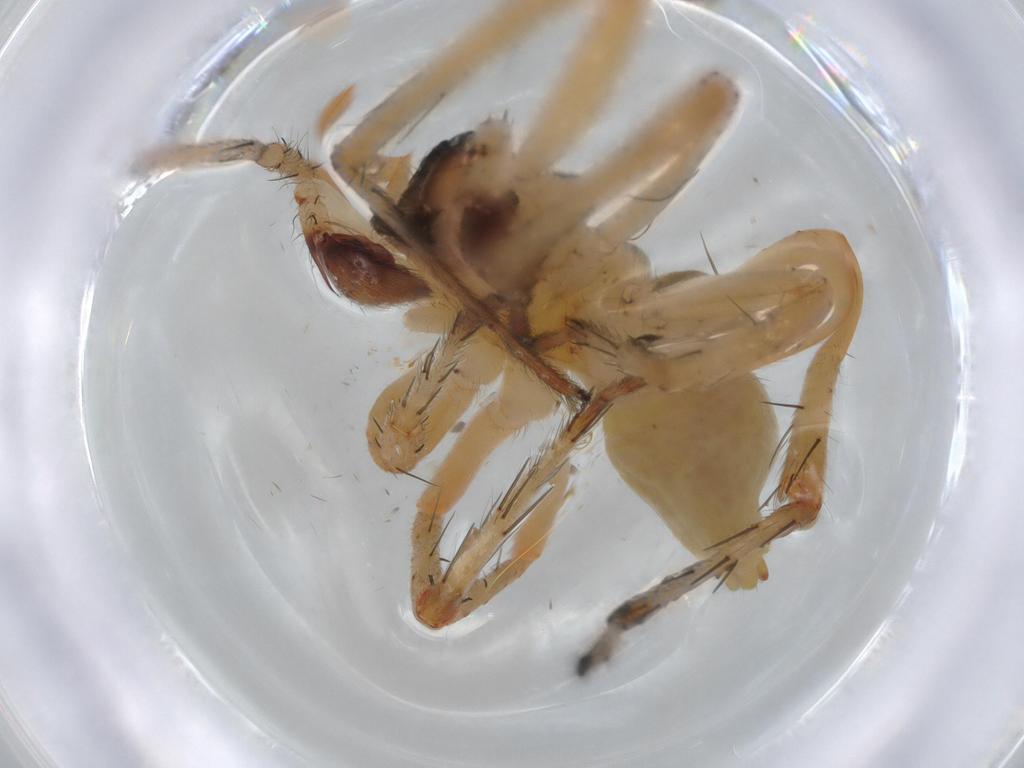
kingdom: Animalia
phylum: Arthropoda
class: Arachnida
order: Araneae
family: Anyphaenidae
